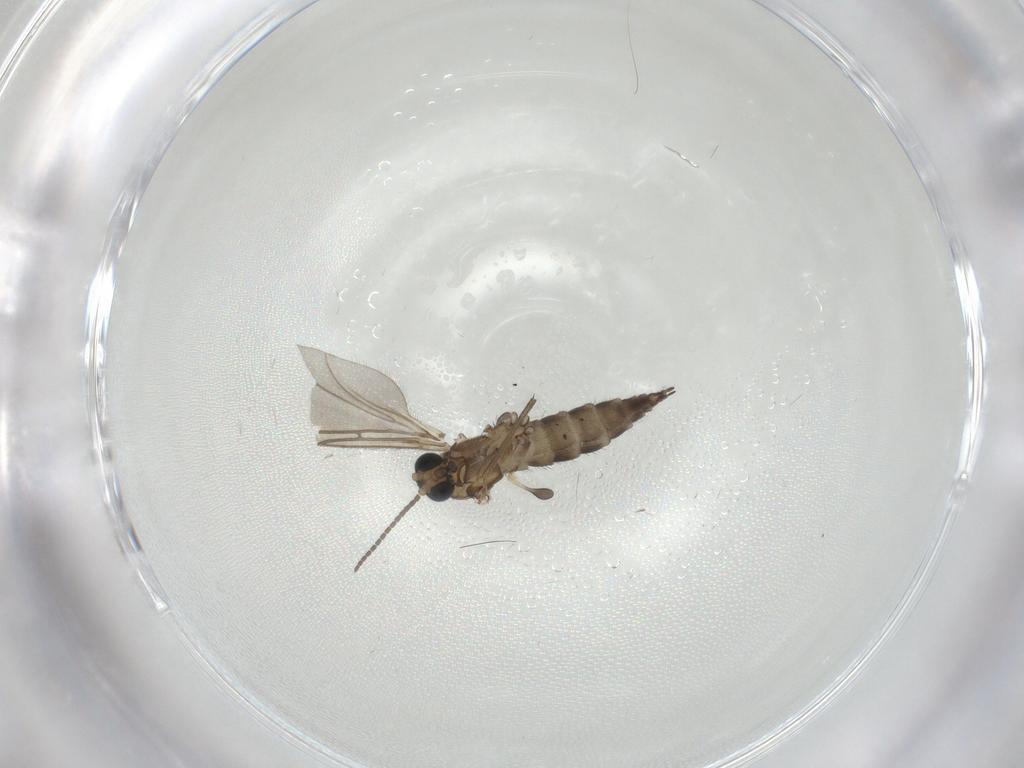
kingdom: Animalia
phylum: Arthropoda
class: Insecta
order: Diptera
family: Sciaridae
